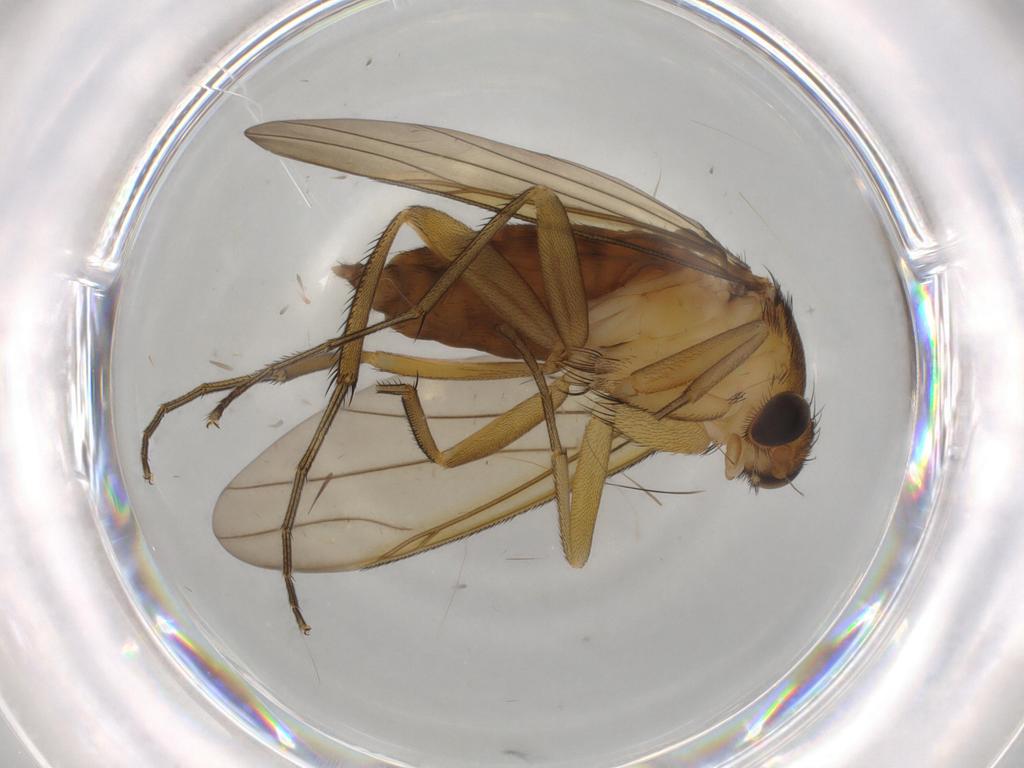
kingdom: Animalia
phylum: Arthropoda
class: Insecta
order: Diptera
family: Phoridae
